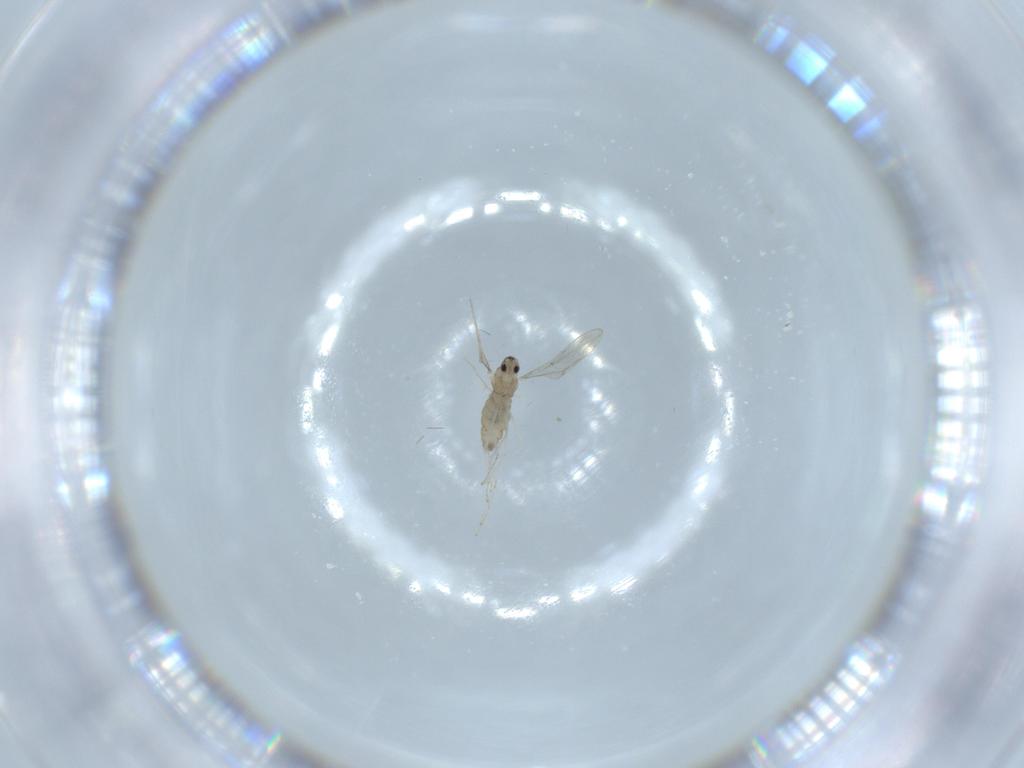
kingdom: Animalia
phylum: Arthropoda
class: Insecta
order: Diptera
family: Cecidomyiidae
